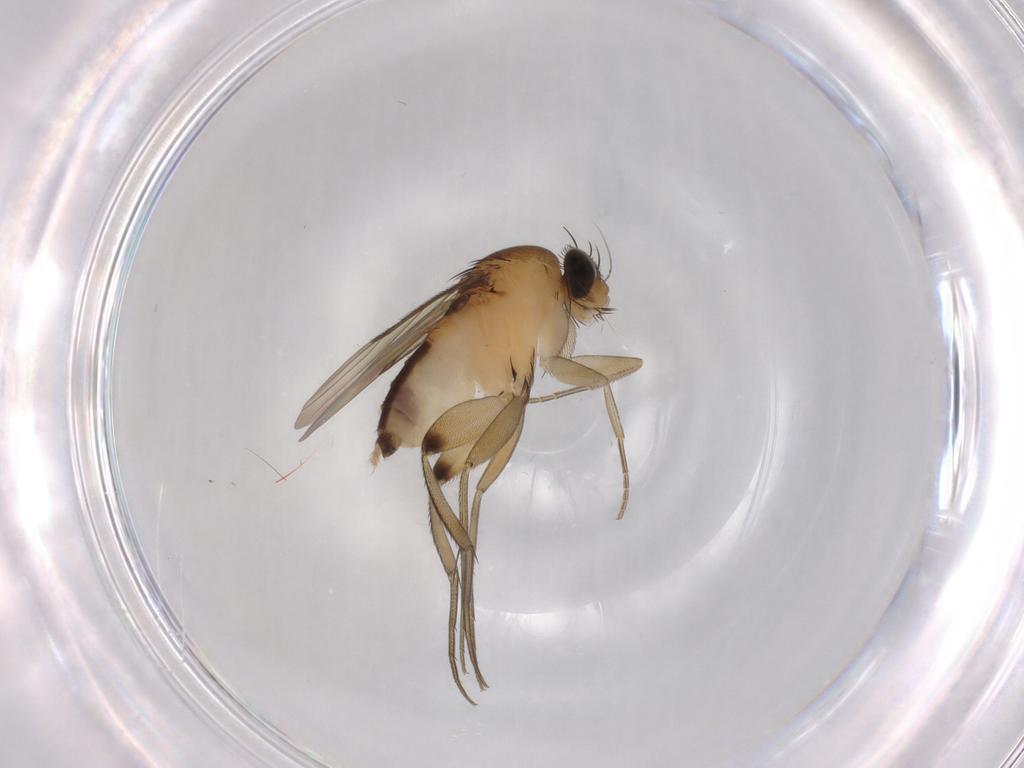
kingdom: Animalia
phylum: Arthropoda
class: Insecta
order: Diptera
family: Phoridae
